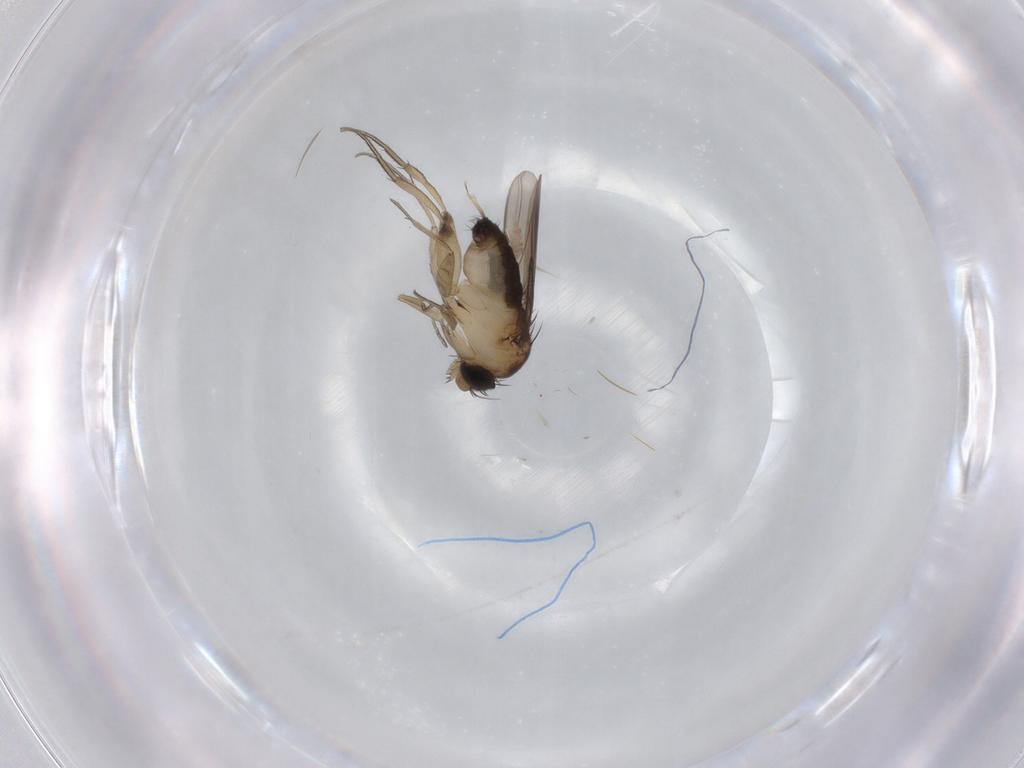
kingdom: Animalia
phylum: Arthropoda
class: Insecta
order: Diptera
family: Phoridae
